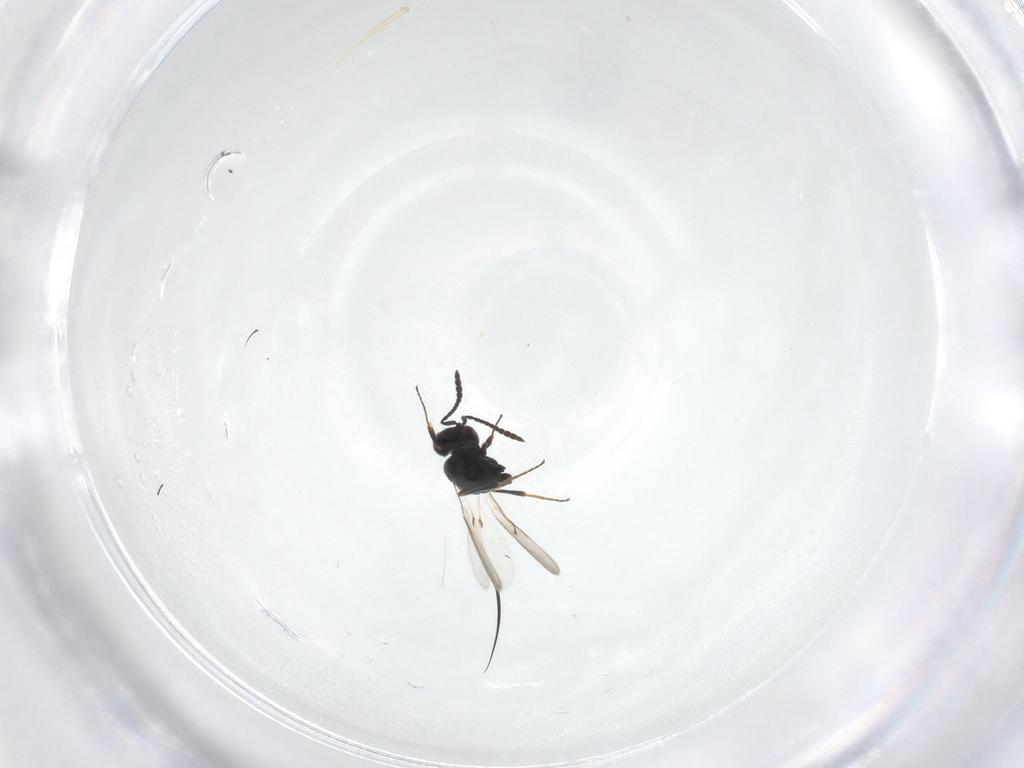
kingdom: Animalia
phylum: Arthropoda
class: Insecta
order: Hymenoptera
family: Scelionidae
